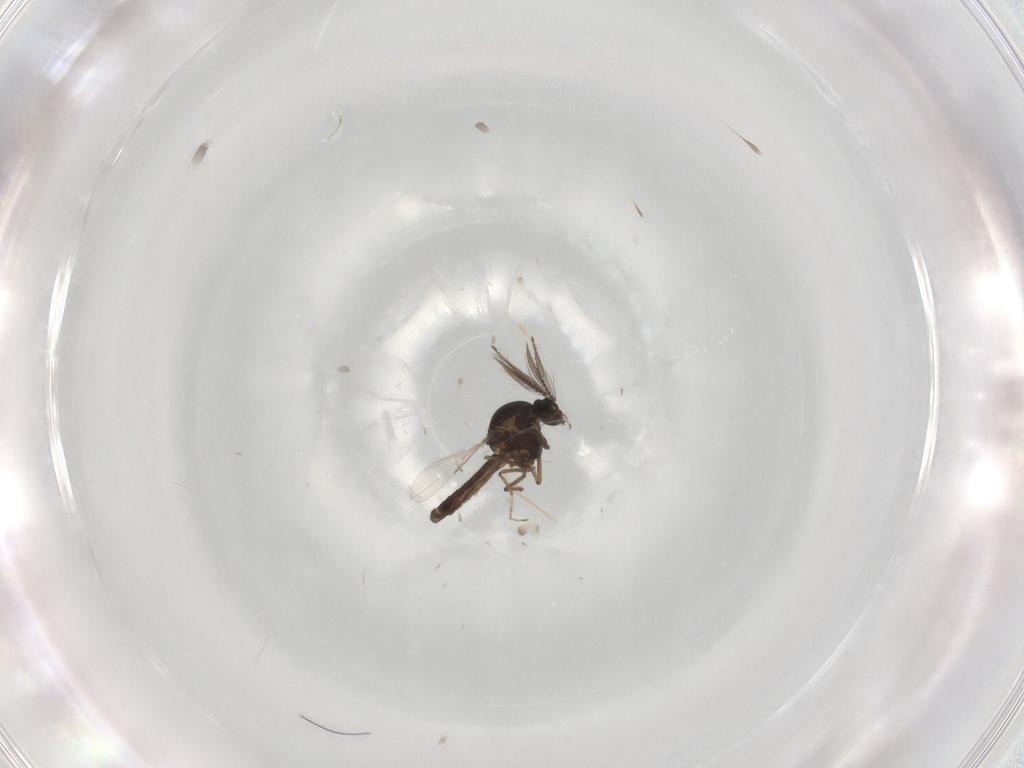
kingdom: Animalia
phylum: Arthropoda
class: Insecta
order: Diptera
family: Ceratopogonidae
